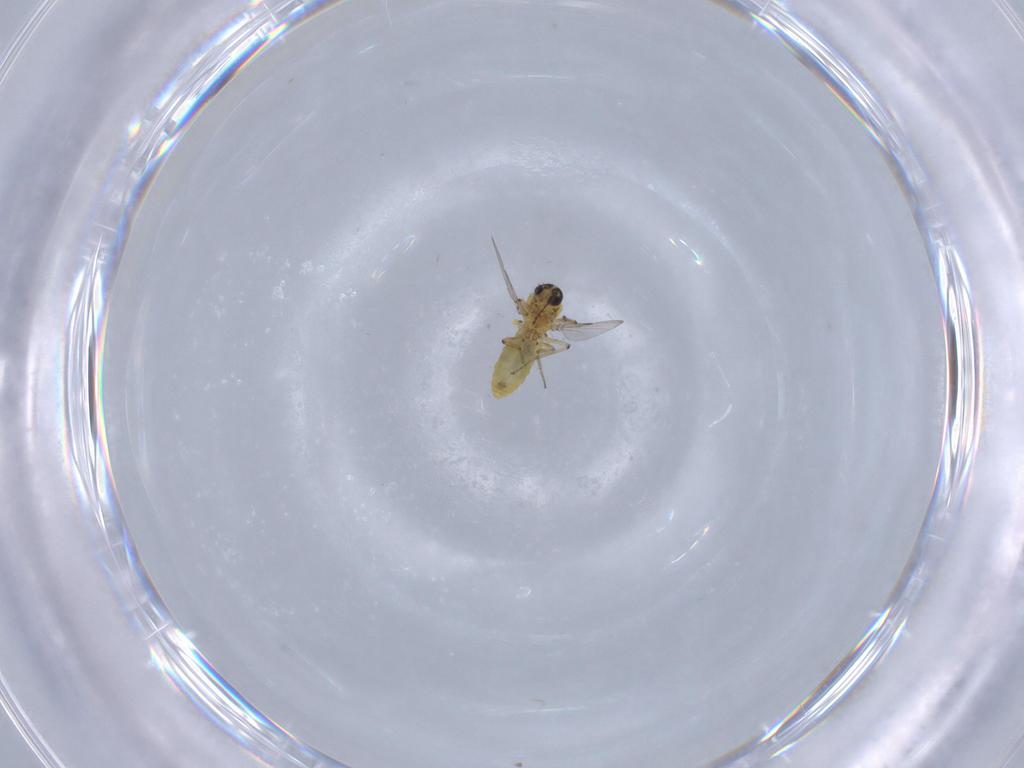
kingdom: Animalia
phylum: Arthropoda
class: Insecta
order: Diptera
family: Ceratopogonidae
